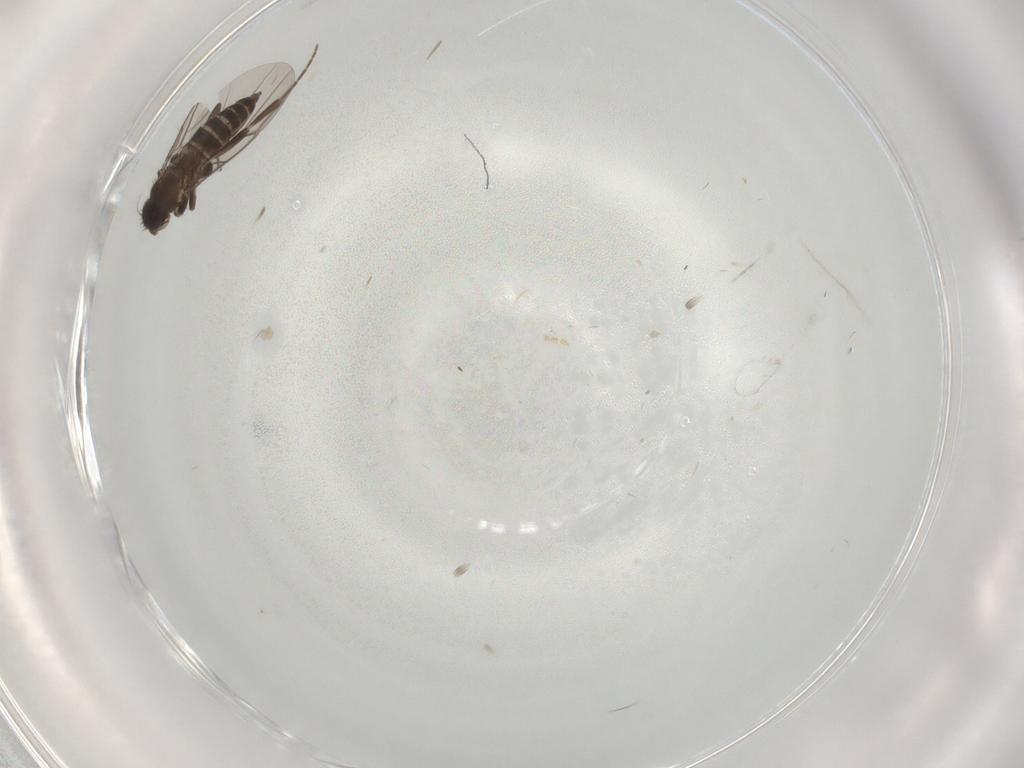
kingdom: Animalia
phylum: Arthropoda
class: Insecta
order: Diptera
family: Phoridae
